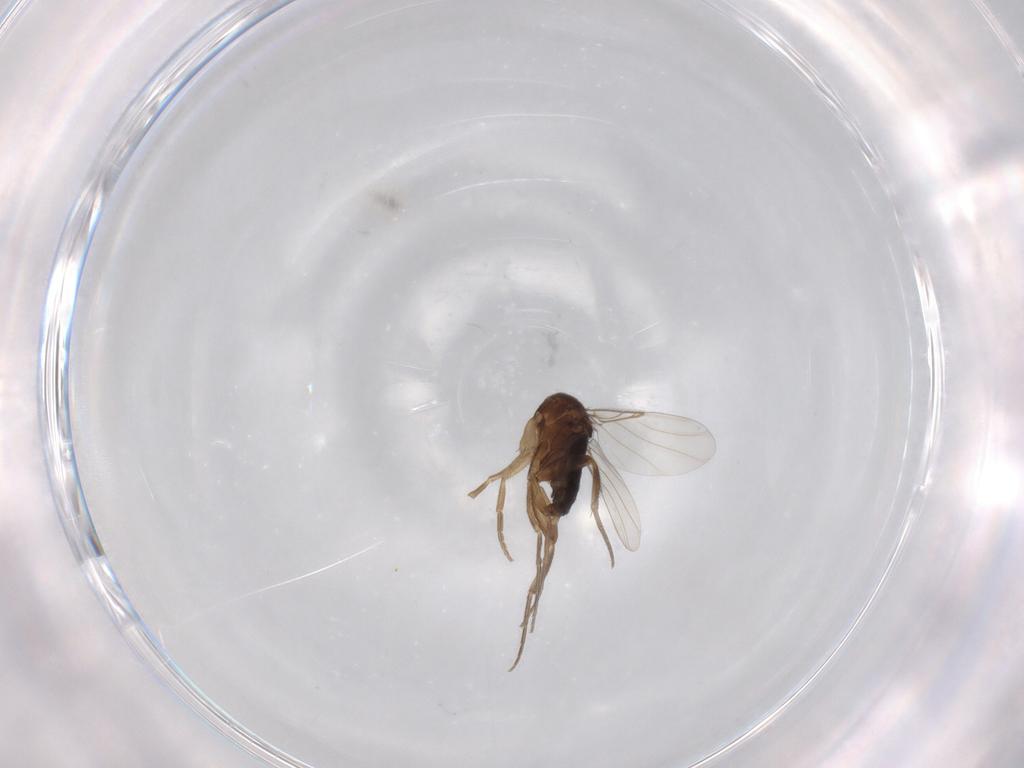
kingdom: Animalia
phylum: Arthropoda
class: Insecta
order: Diptera
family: Phoridae
